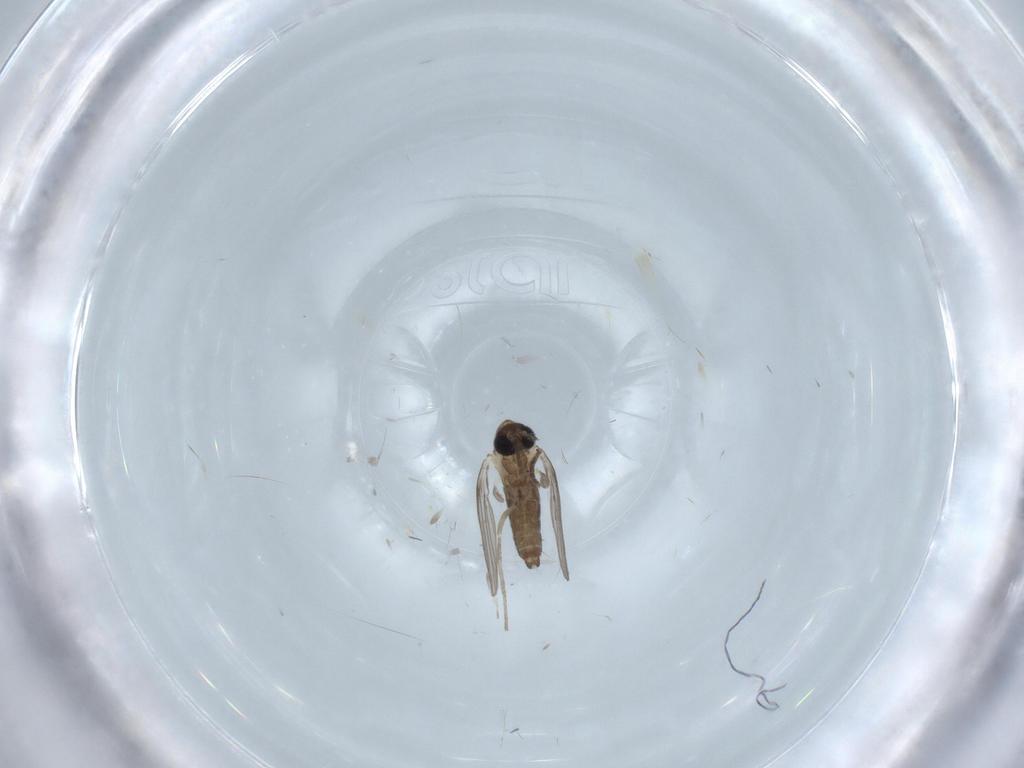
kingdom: Animalia
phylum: Arthropoda
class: Insecta
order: Diptera
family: Psychodidae
